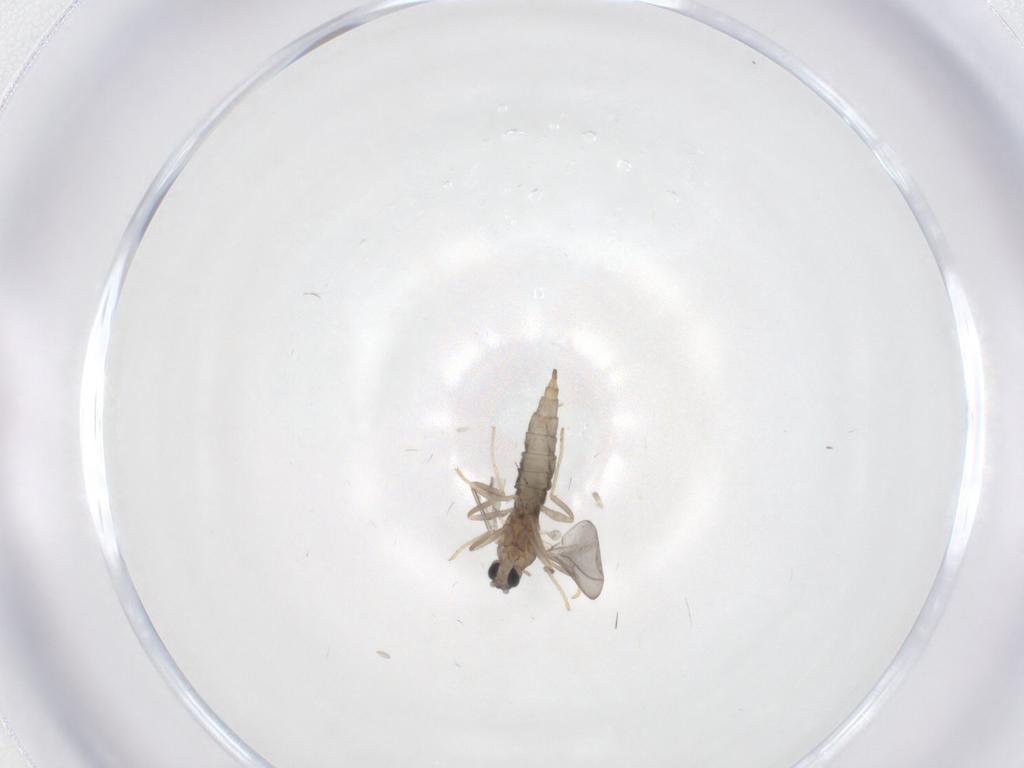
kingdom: Animalia
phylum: Arthropoda
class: Insecta
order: Diptera
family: Cecidomyiidae
